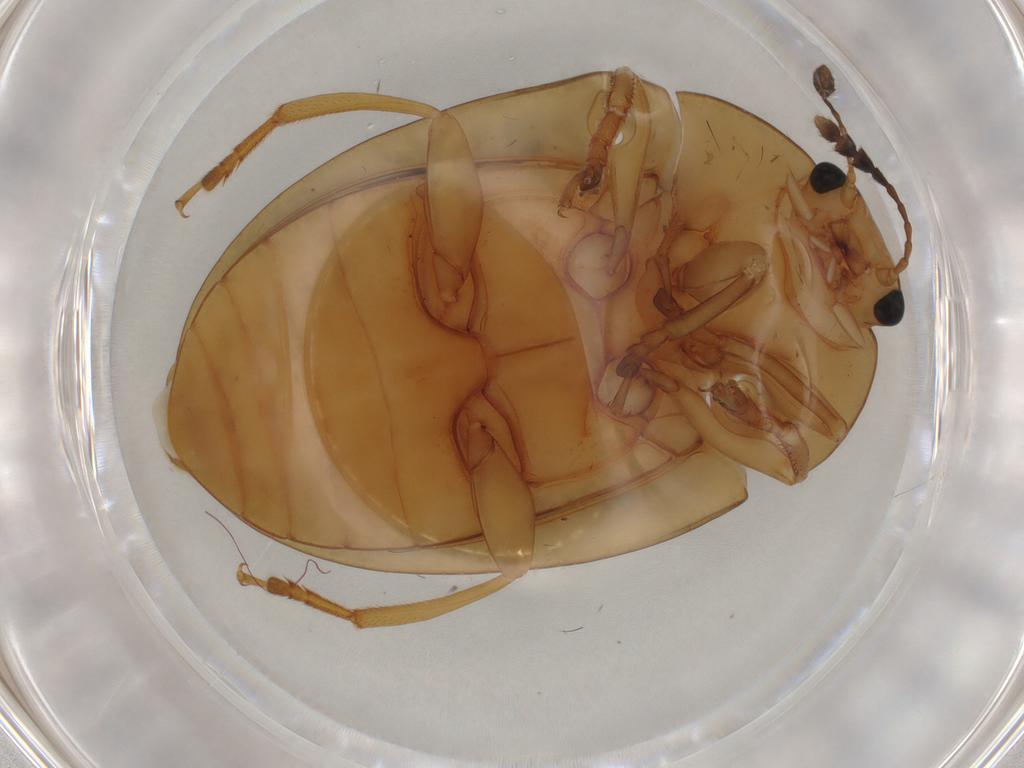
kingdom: Animalia
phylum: Arthropoda
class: Insecta
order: Coleoptera
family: Erotylidae
